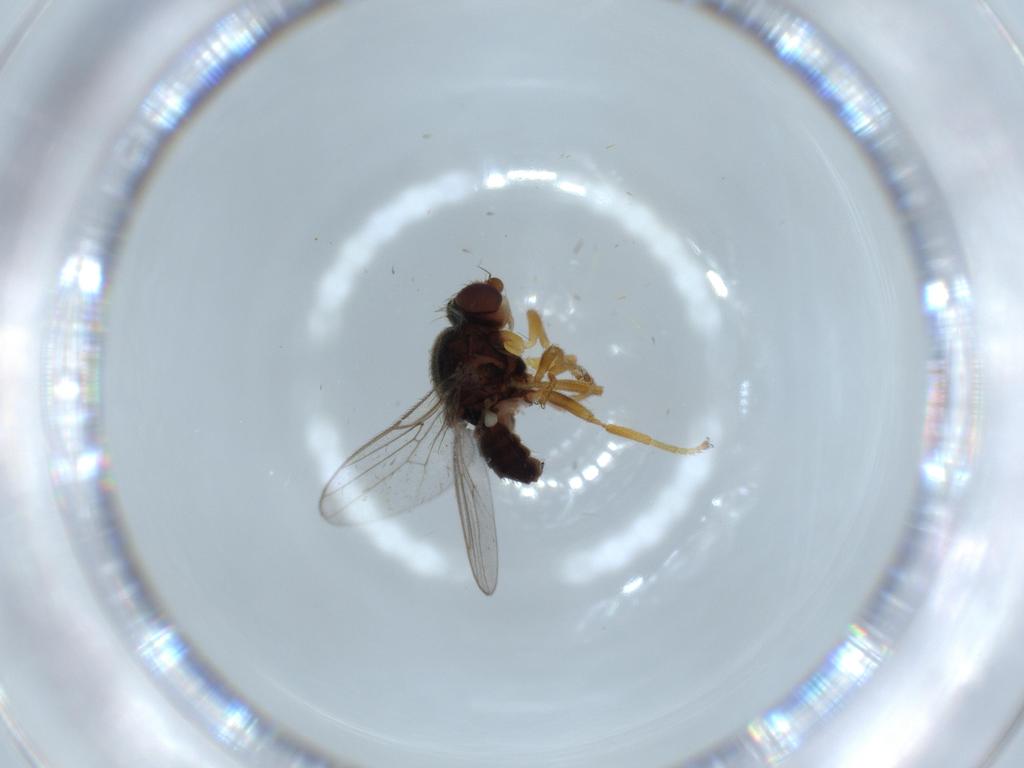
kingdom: Animalia
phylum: Arthropoda
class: Insecta
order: Diptera
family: Chloropidae
